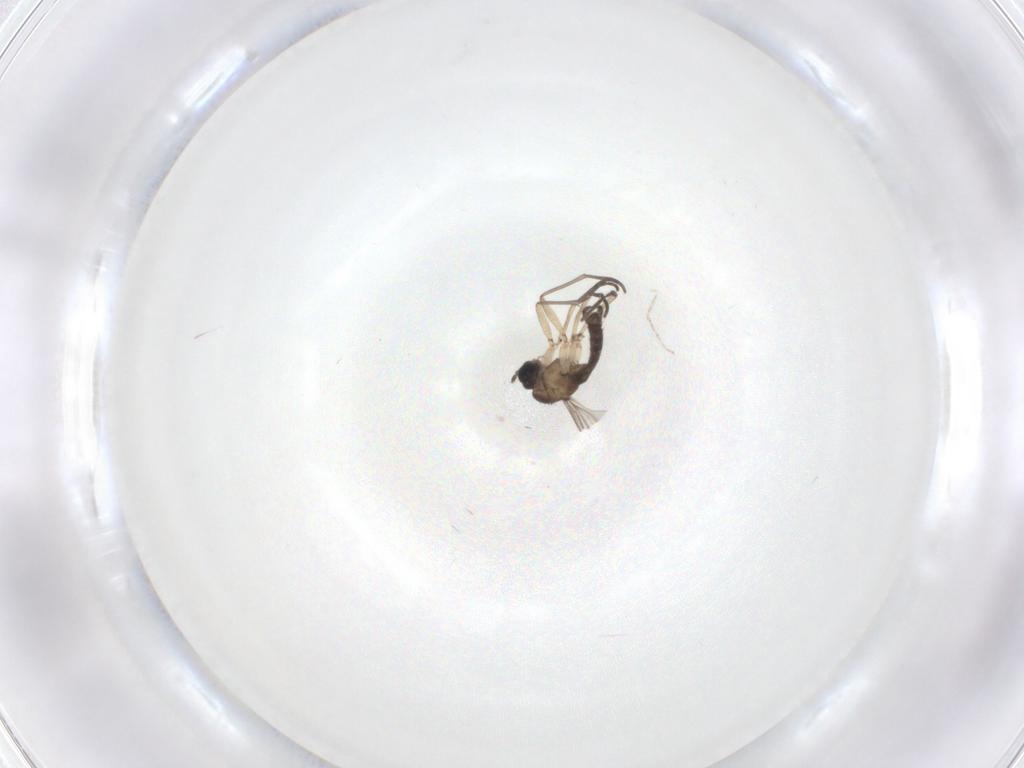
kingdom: Animalia
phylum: Arthropoda
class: Insecta
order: Diptera
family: Sciaridae
